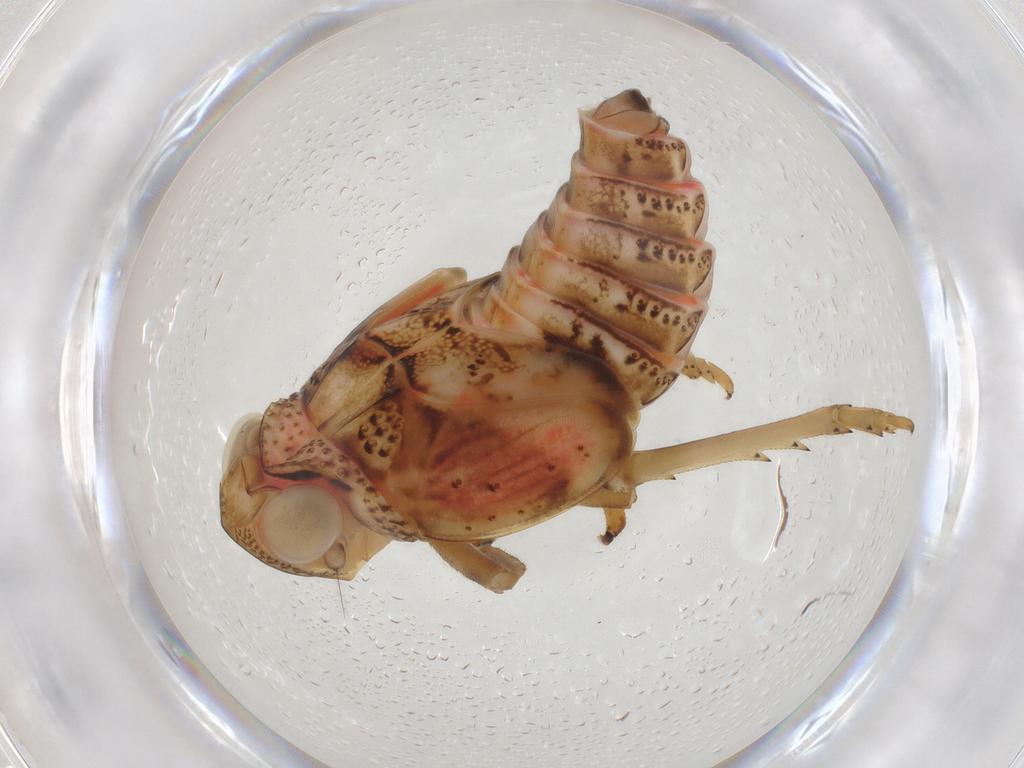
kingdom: Animalia
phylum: Arthropoda
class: Insecta
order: Hemiptera
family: Issidae
